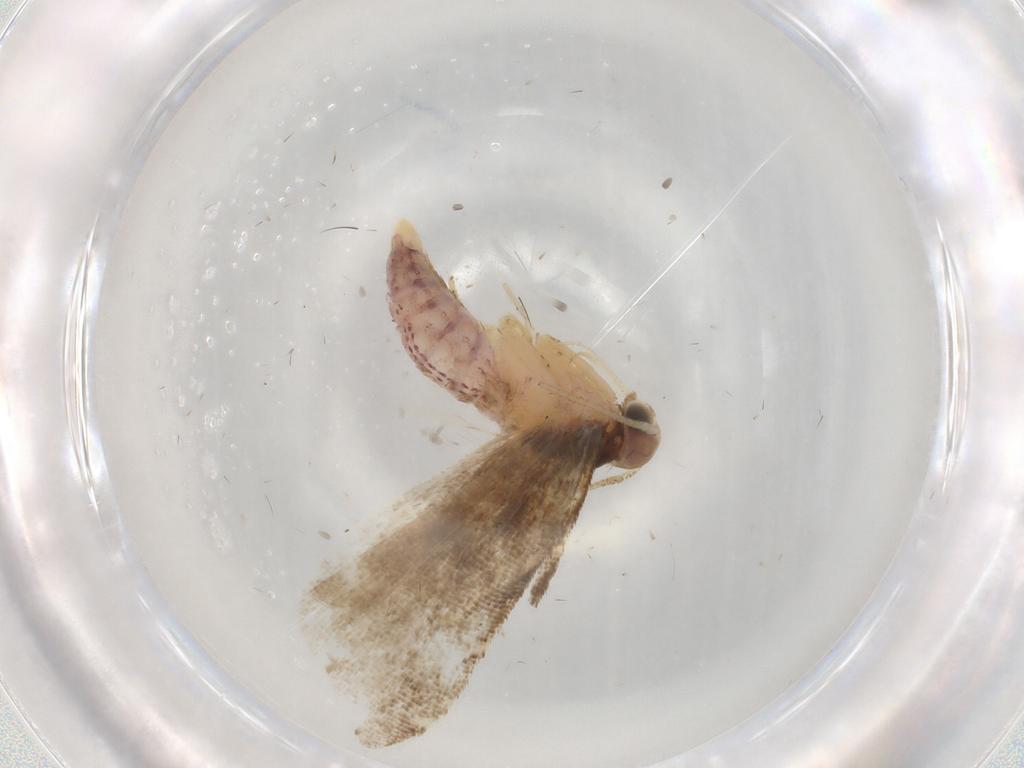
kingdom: Animalia
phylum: Arthropoda
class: Insecta
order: Lepidoptera
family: Gelechiidae
